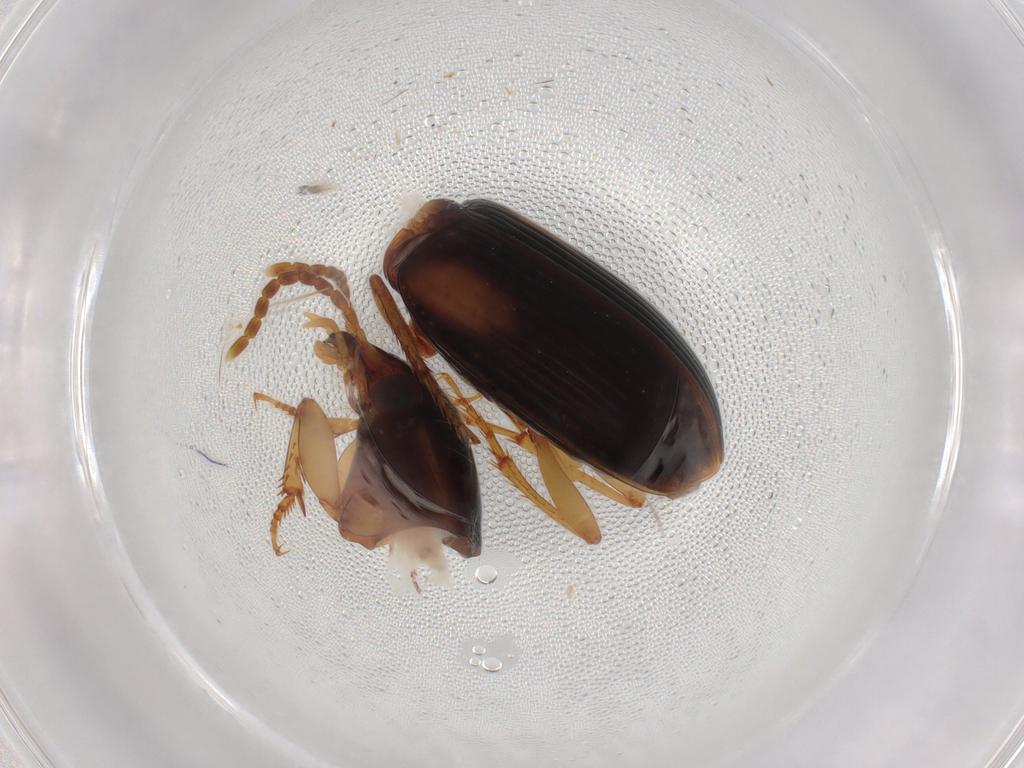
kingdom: Animalia
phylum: Arthropoda
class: Insecta
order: Coleoptera
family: Carabidae
